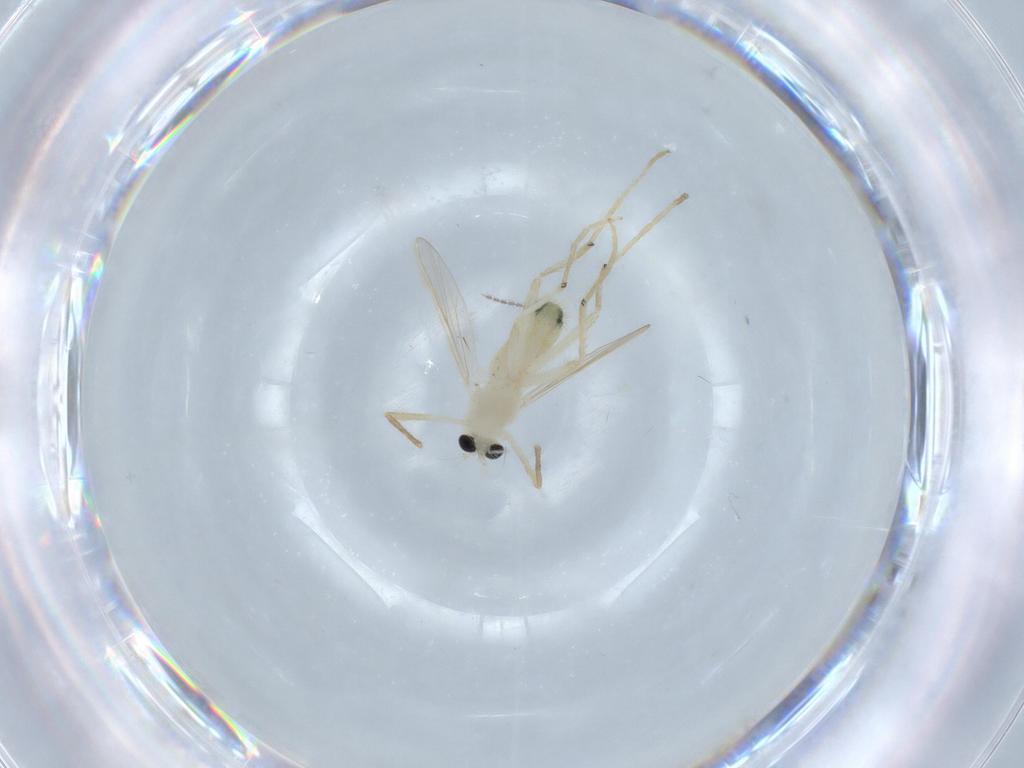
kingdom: Animalia
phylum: Arthropoda
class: Insecta
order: Diptera
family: Chironomidae
